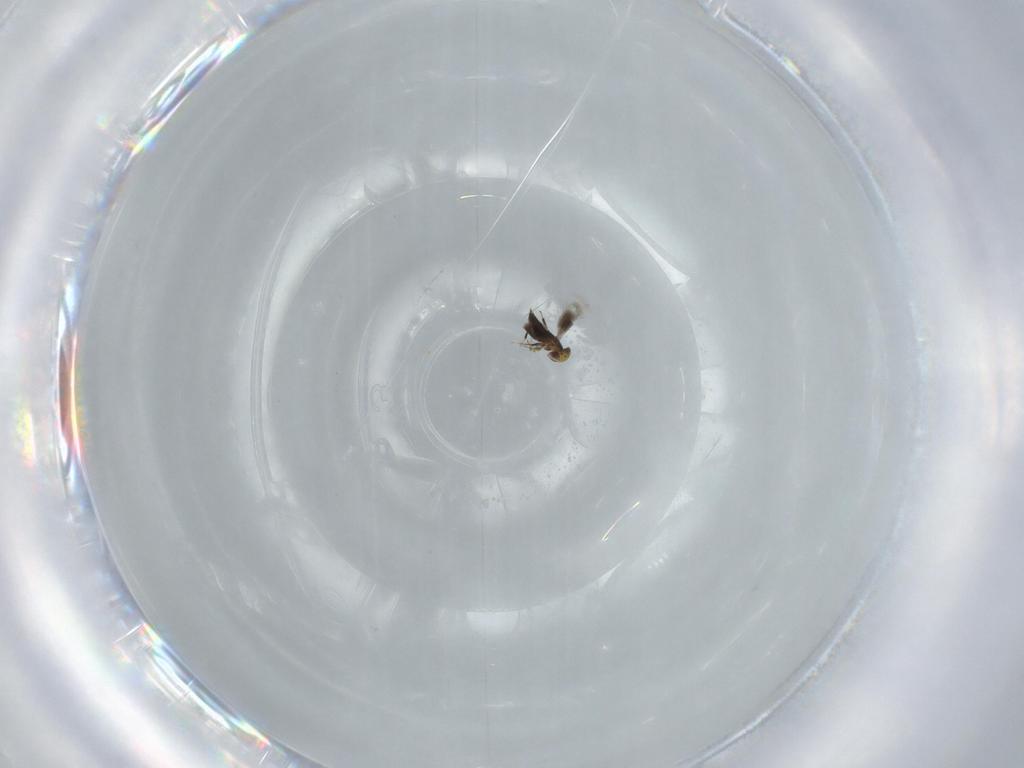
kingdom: Animalia
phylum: Arthropoda
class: Insecta
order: Hymenoptera
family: Signiphoridae
